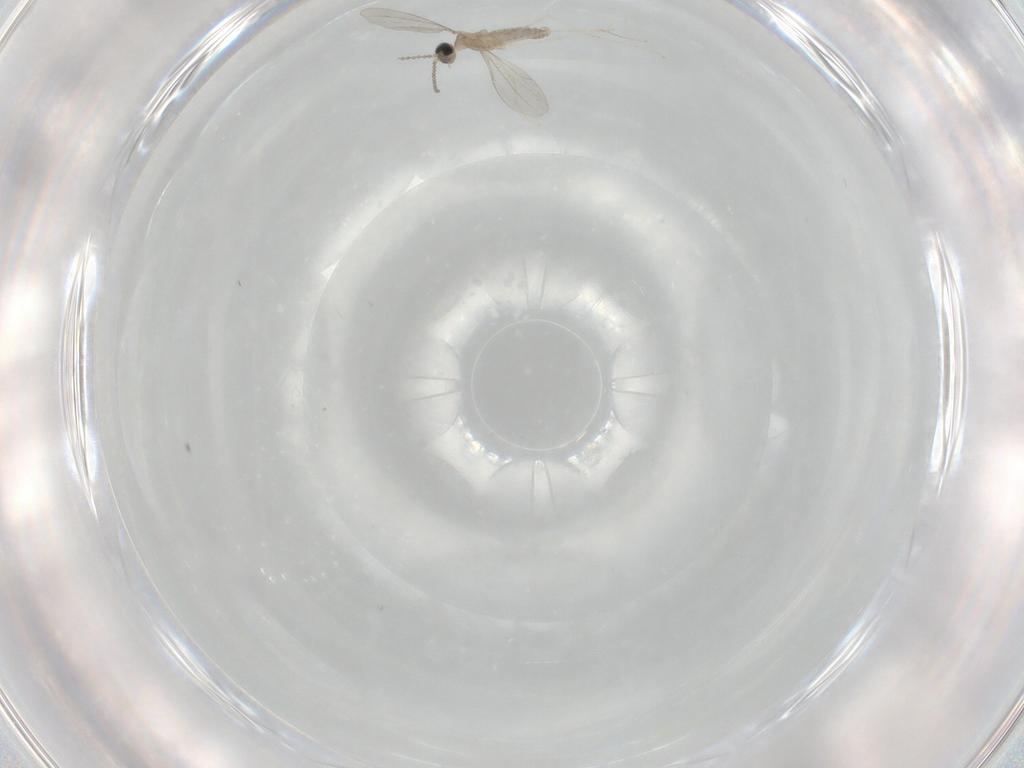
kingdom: Animalia
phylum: Arthropoda
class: Insecta
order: Diptera
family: Cecidomyiidae
